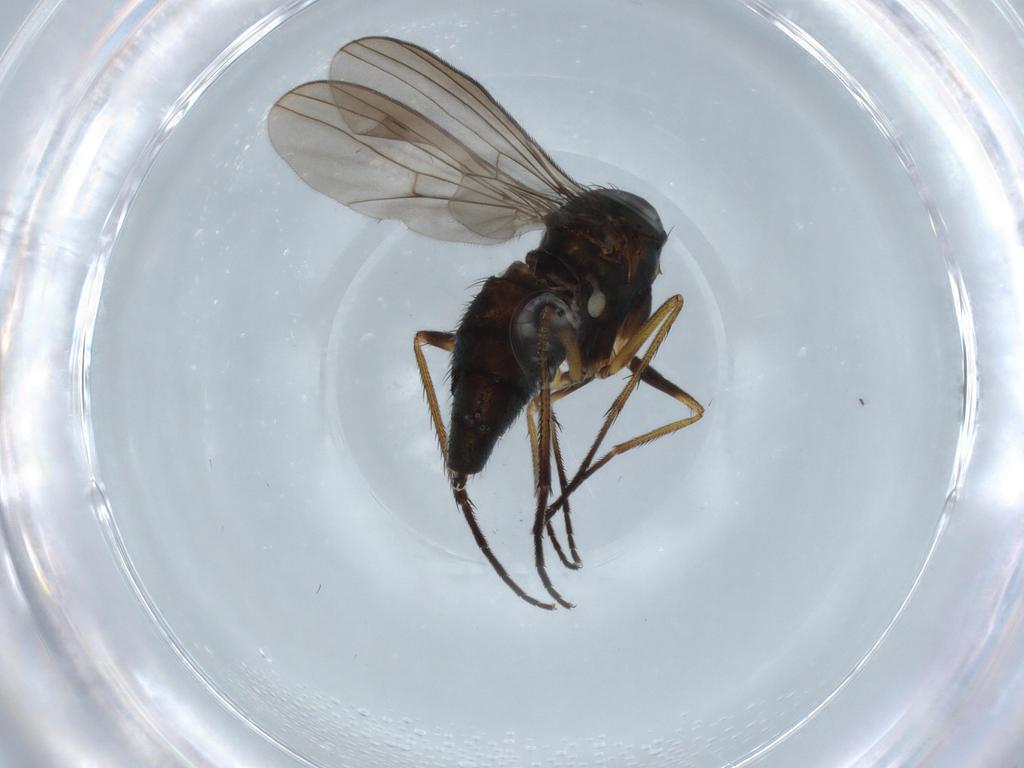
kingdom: Animalia
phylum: Arthropoda
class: Insecta
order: Diptera
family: Dolichopodidae
